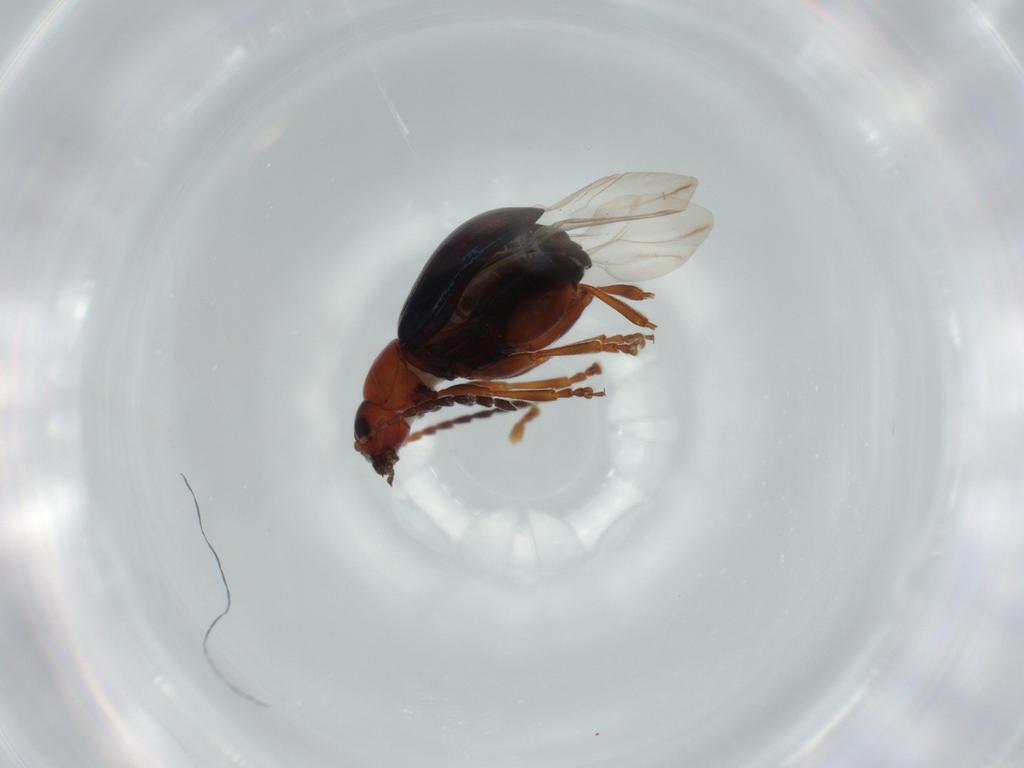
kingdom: Animalia
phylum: Arthropoda
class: Insecta
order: Coleoptera
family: Chrysomelidae
